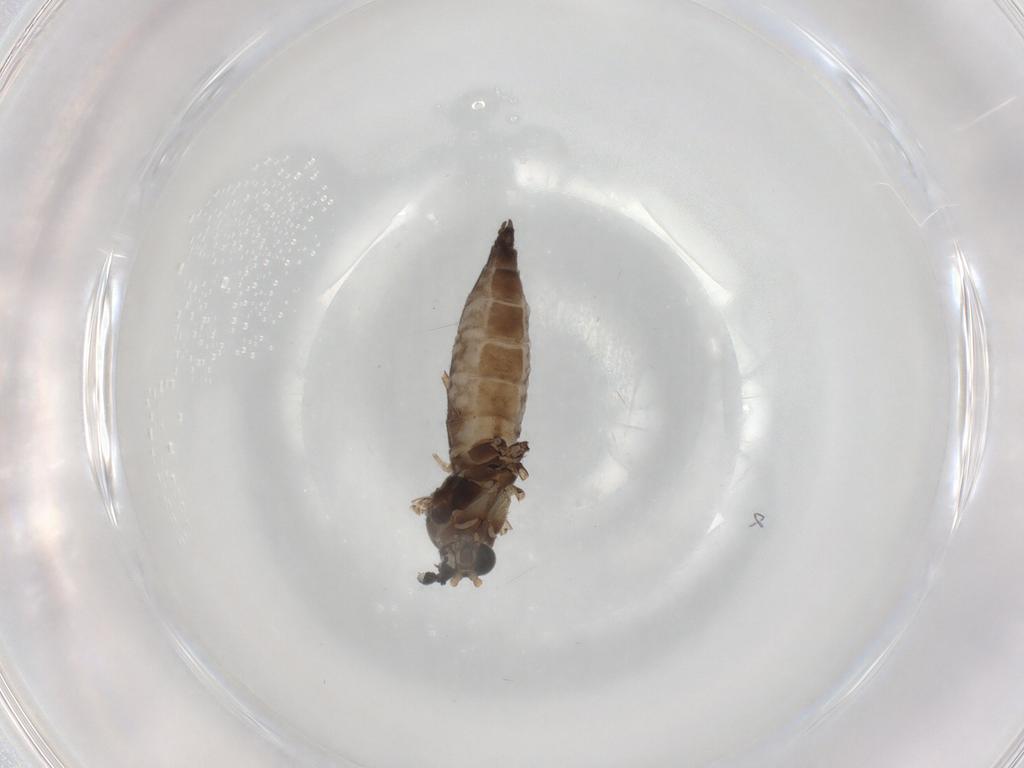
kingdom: Animalia
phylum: Arthropoda
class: Insecta
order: Diptera
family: Sciaridae
